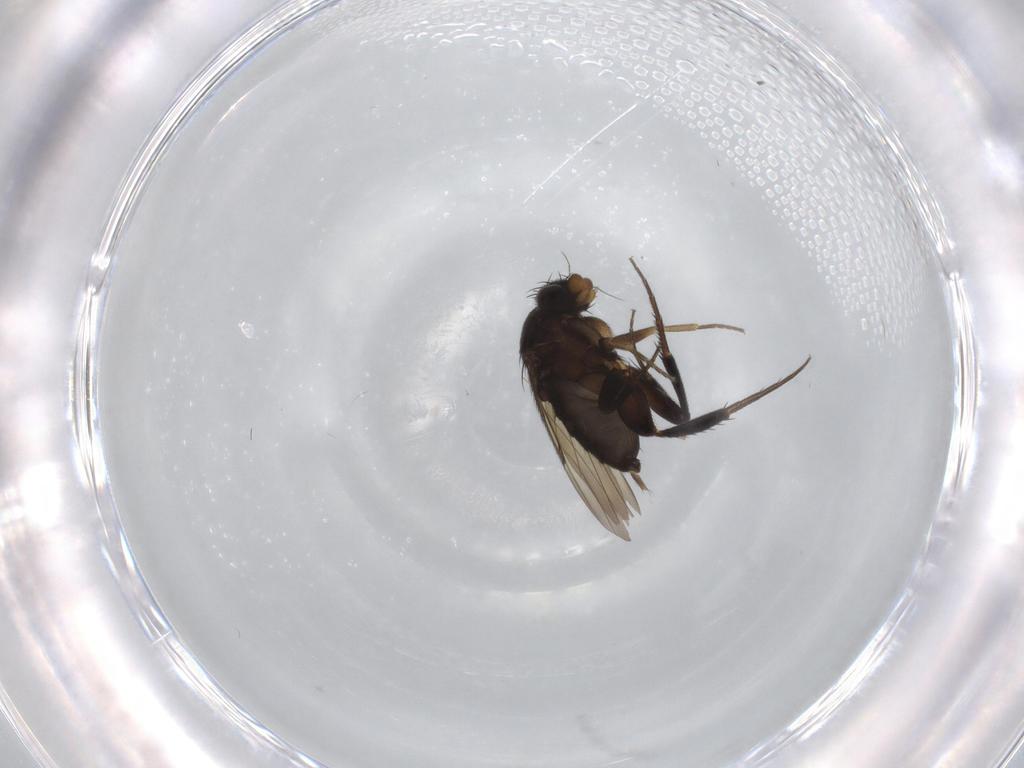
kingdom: Animalia
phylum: Arthropoda
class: Insecta
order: Diptera
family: Phoridae
